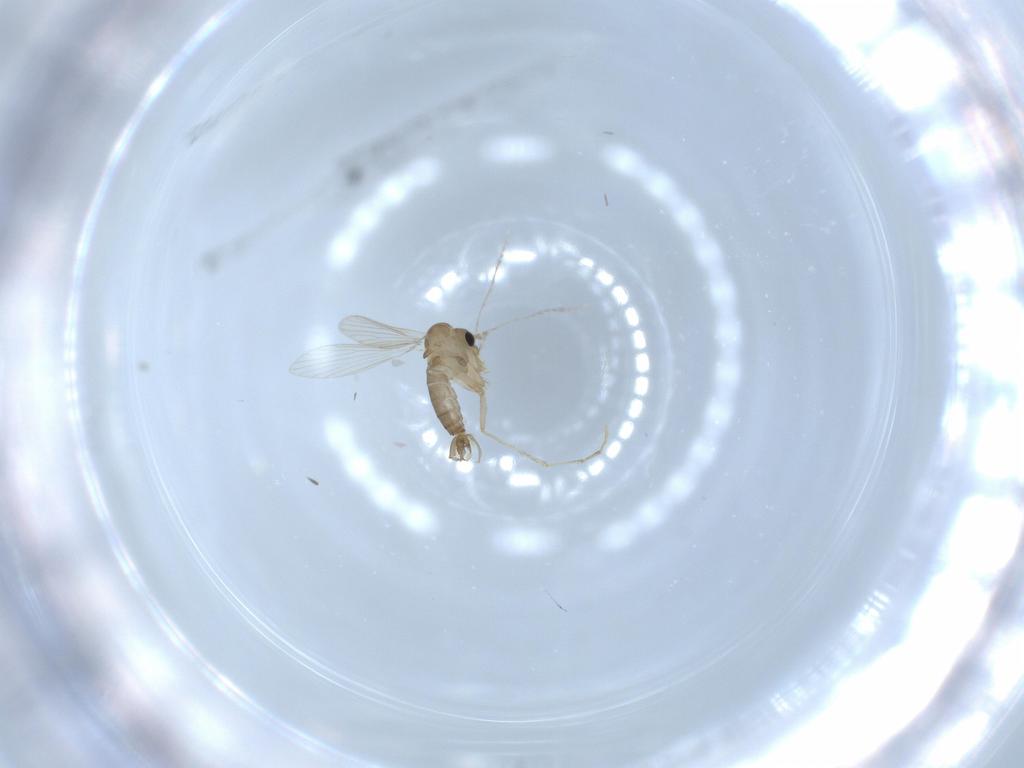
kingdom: Animalia
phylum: Arthropoda
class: Insecta
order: Diptera
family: Psychodidae
